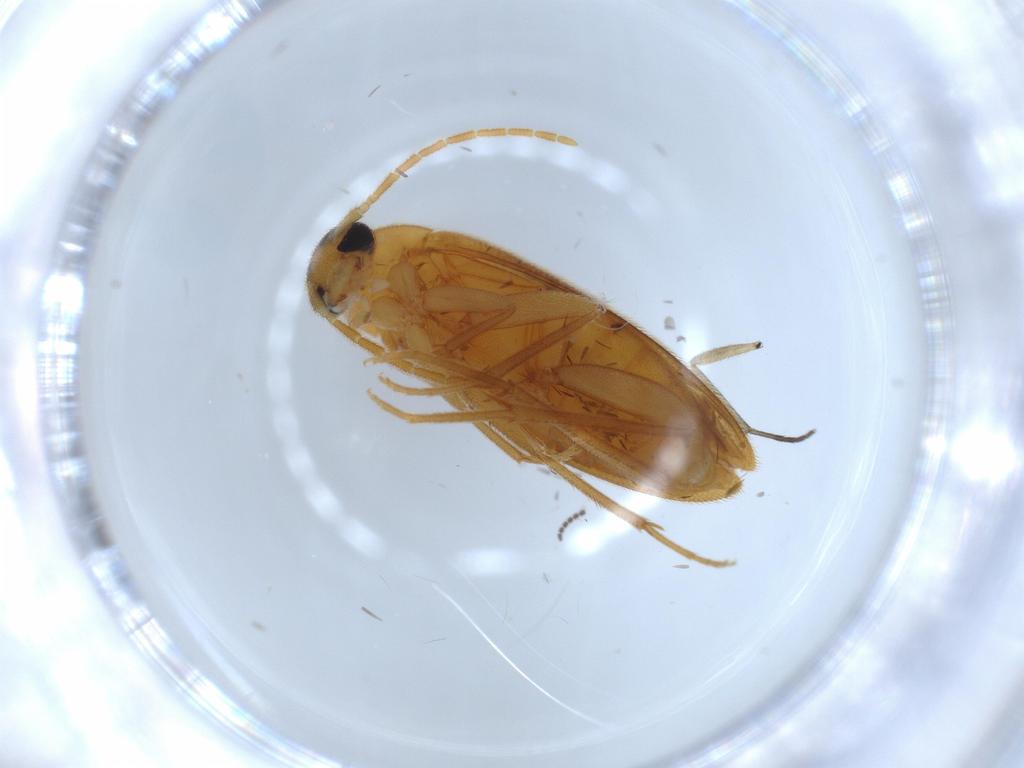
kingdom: Animalia
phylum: Arthropoda
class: Insecta
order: Coleoptera
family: Scraptiidae
